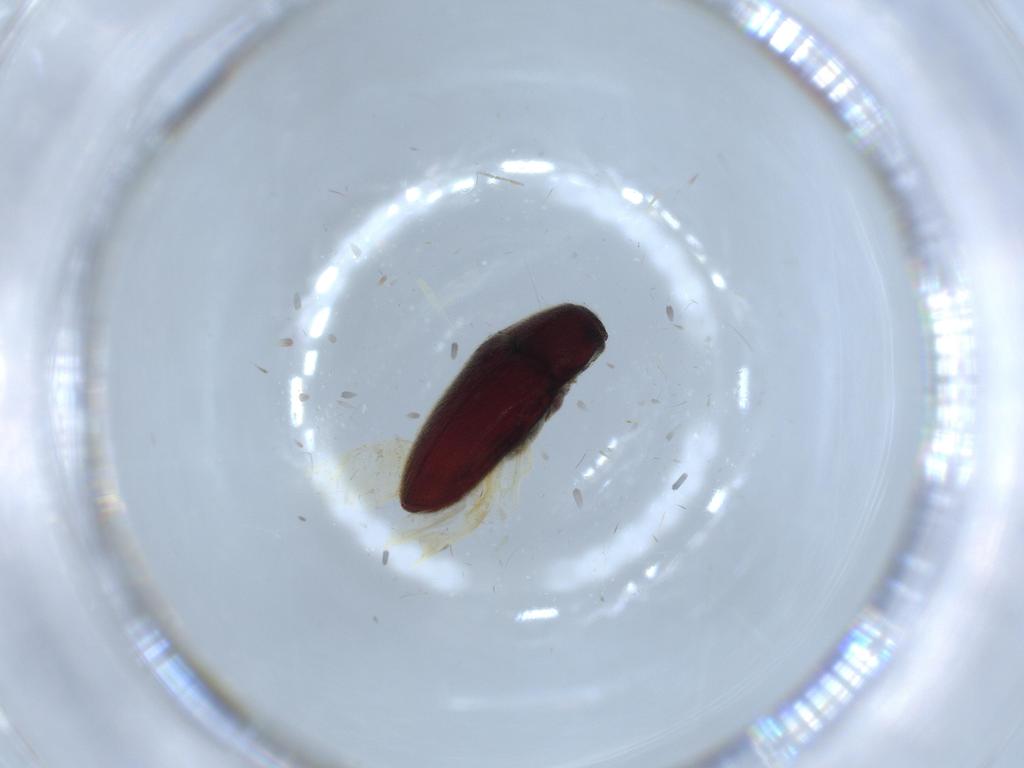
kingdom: Animalia
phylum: Arthropoda
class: Insecta
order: Coleoptera
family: Throscidae
